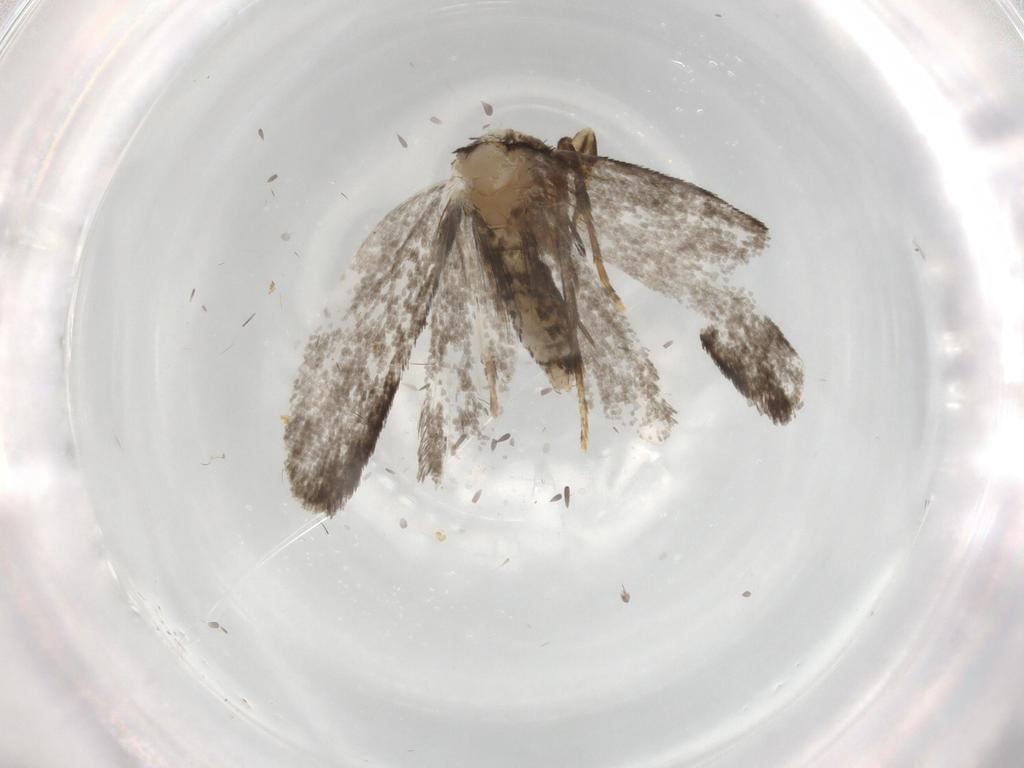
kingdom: Animalia
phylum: Arthropoda
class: Insecta
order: Lepidoptera
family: Psychidae
